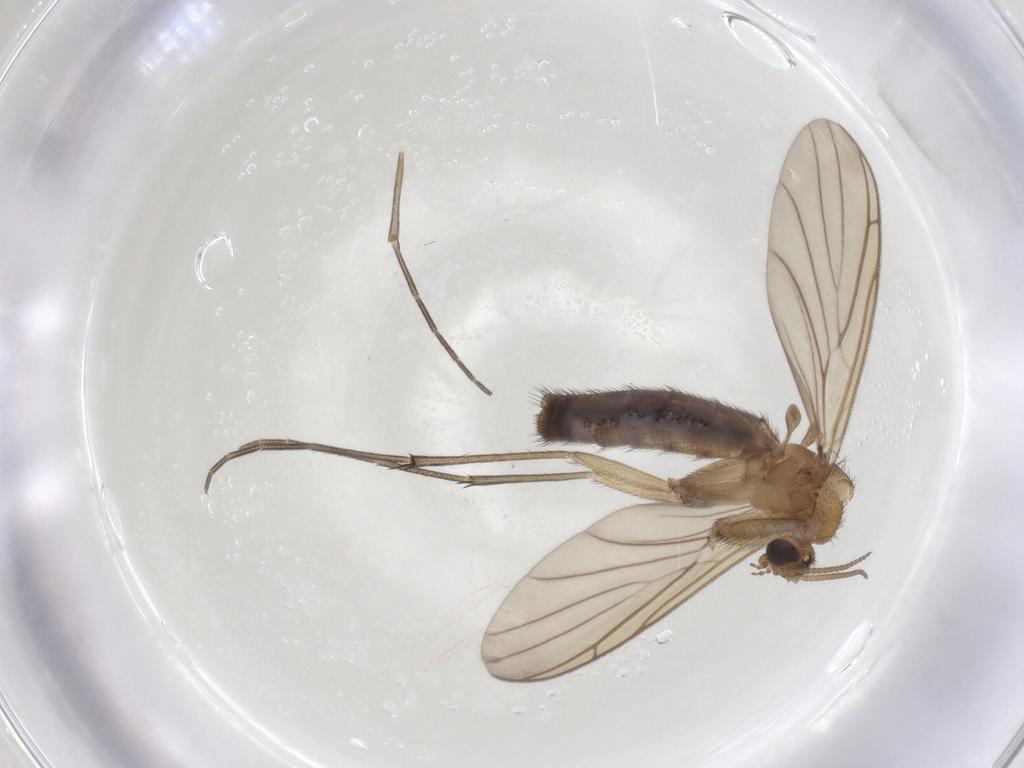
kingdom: Animalia
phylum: Arthropoda
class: Insecta
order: Diptera
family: Keroplatidae
